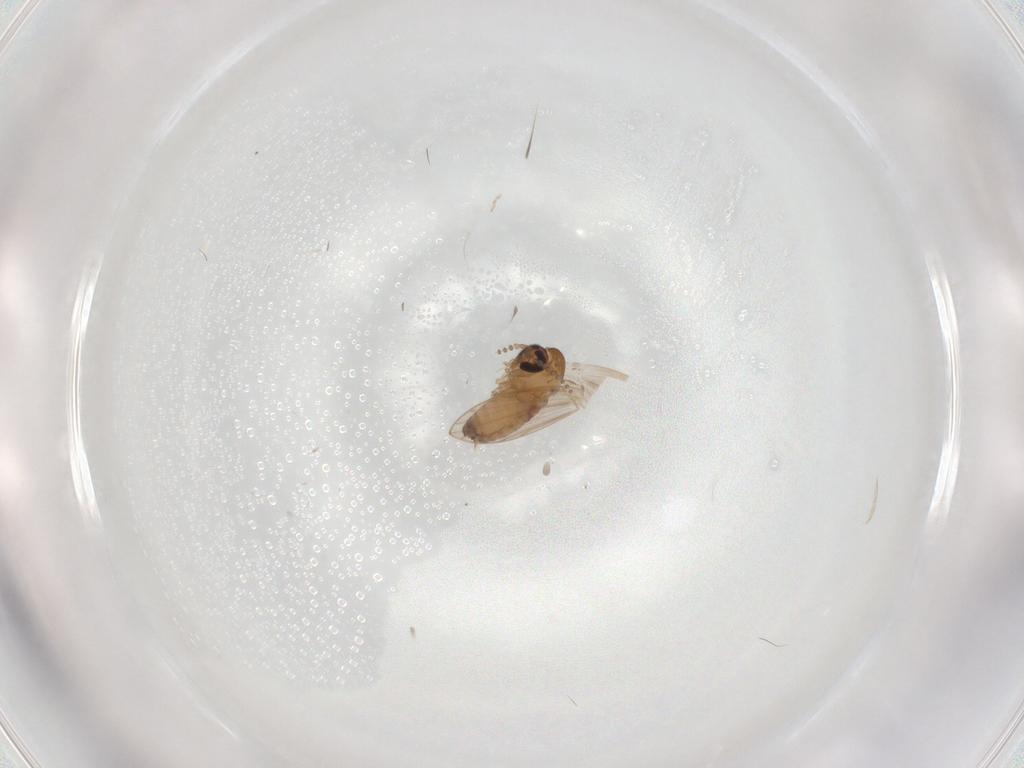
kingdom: Animalia
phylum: Arthropoda
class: Insecta
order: Diptera
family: Psychodidae
